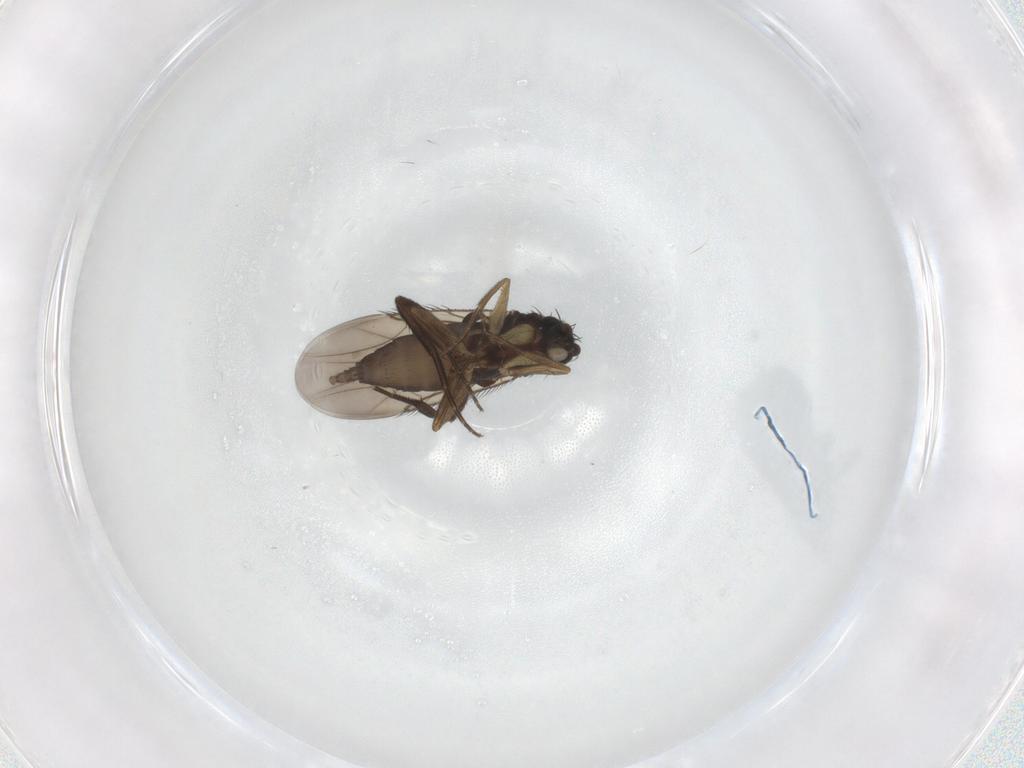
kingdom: Animalia
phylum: Arthropoda
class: Insecta
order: Diptera
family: Phoridae
